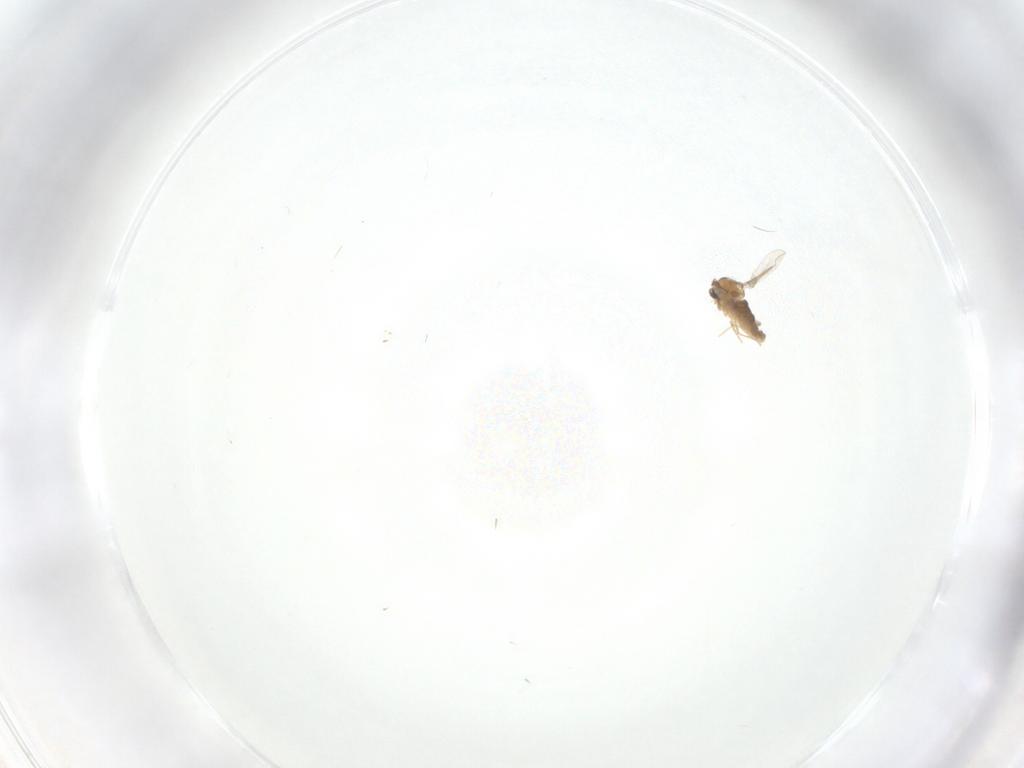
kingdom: Animalia
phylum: Arthropoda
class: Insecta
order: Diptera
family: Chironomidae
